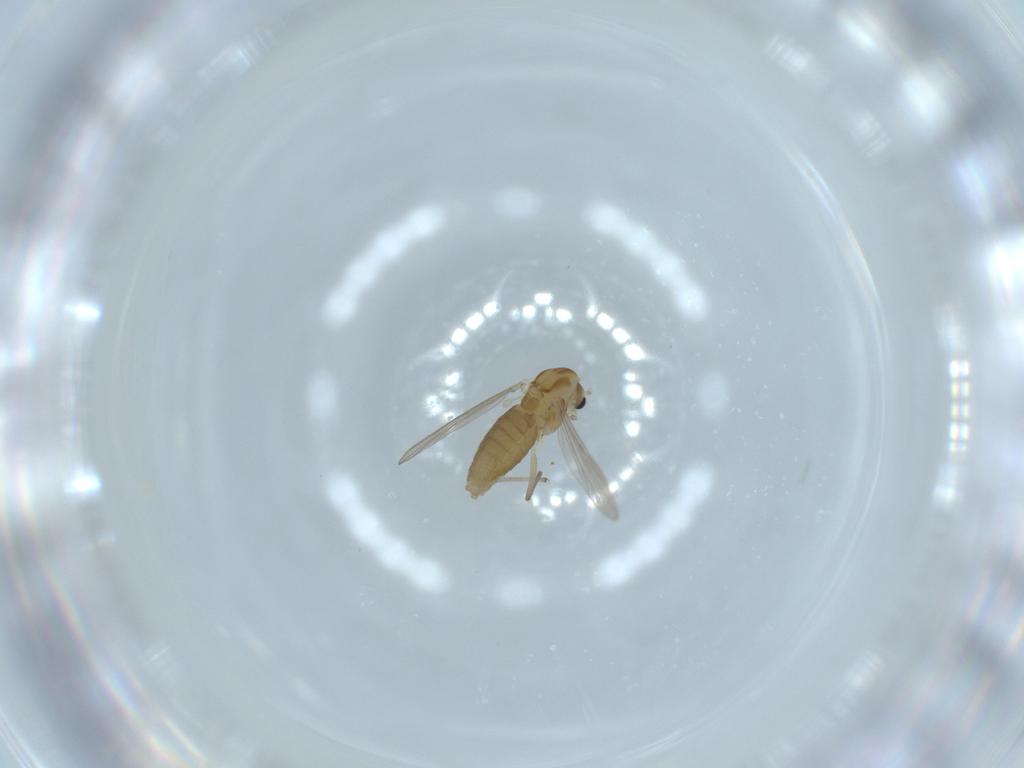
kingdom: Animalia
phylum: Arthropoda
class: Insecta
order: Diptera
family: Chironomidae
